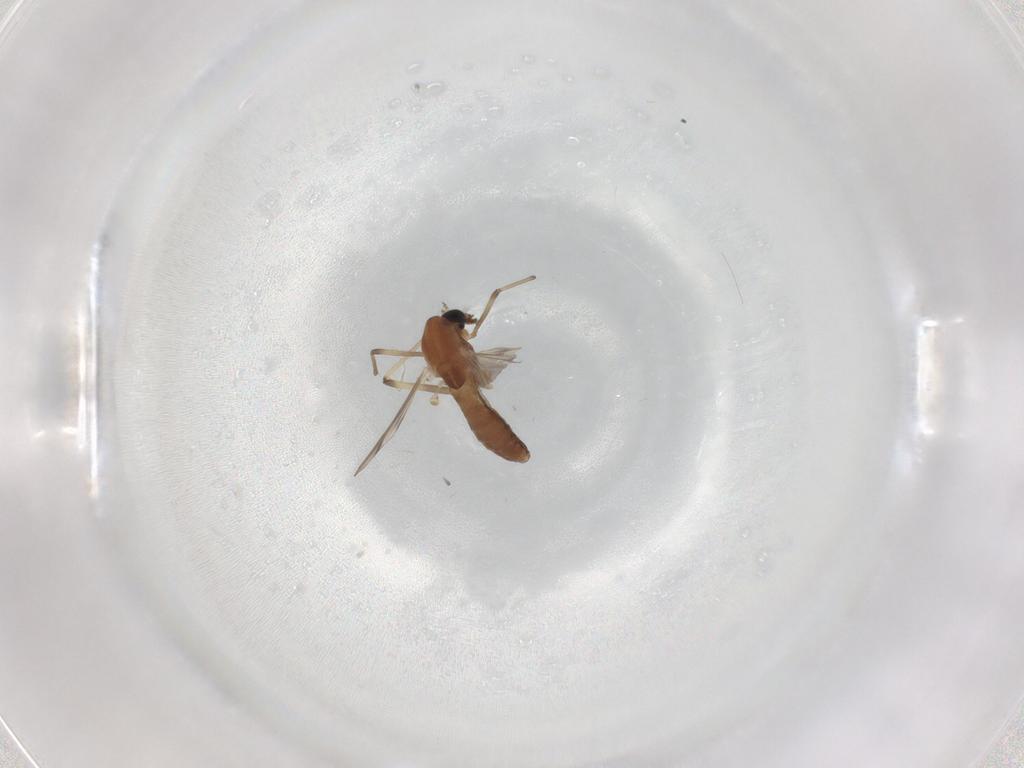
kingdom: Animalia
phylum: Arthropoda
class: Insecta
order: Diptera
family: Chironomidae
